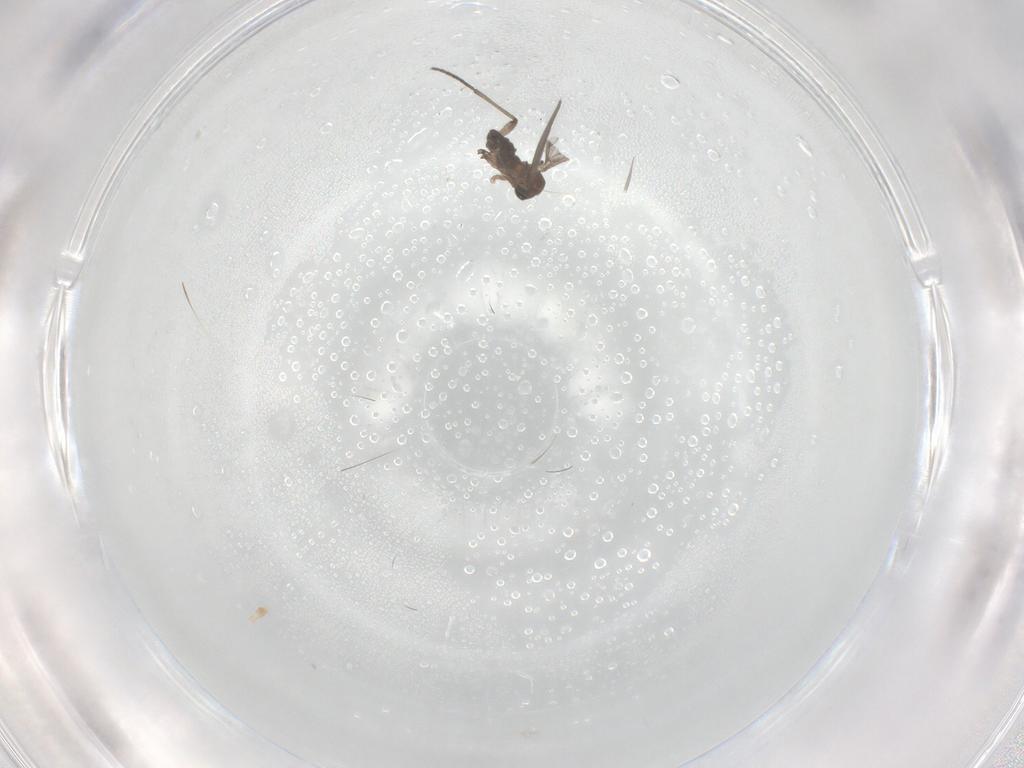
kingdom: Animalia
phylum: Arthropoda
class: Insecta
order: Diptera
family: Sciaridae
